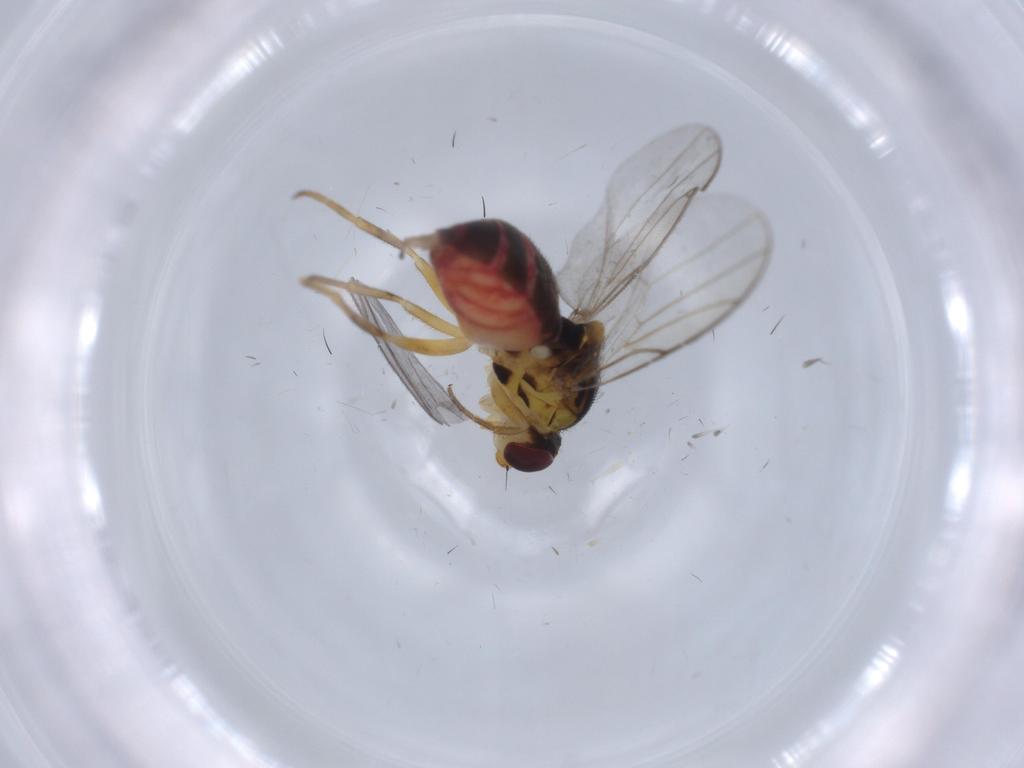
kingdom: Animalia
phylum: Arthropoda
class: Insecta
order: Diptera
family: Chloropidae
